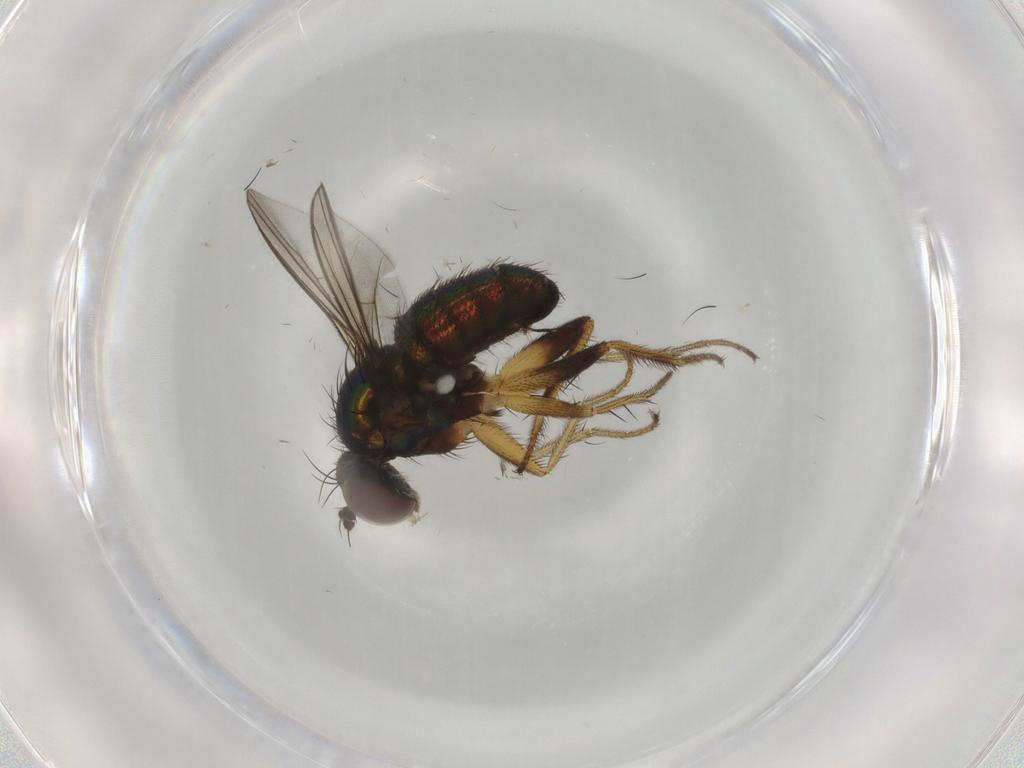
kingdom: Animalia
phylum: Arthropoda
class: Insecta
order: Diptera
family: Dolichopodidae
